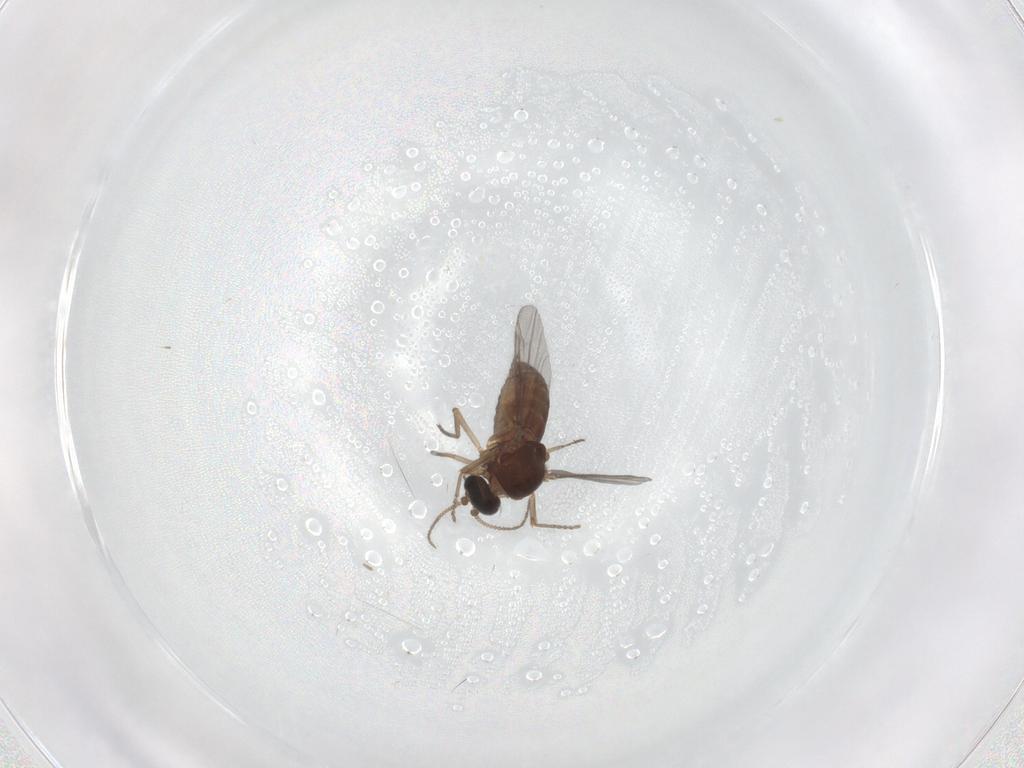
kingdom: Animalia
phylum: Arthropoda
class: Insecta
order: Diptera
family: Ceratopogonidae
